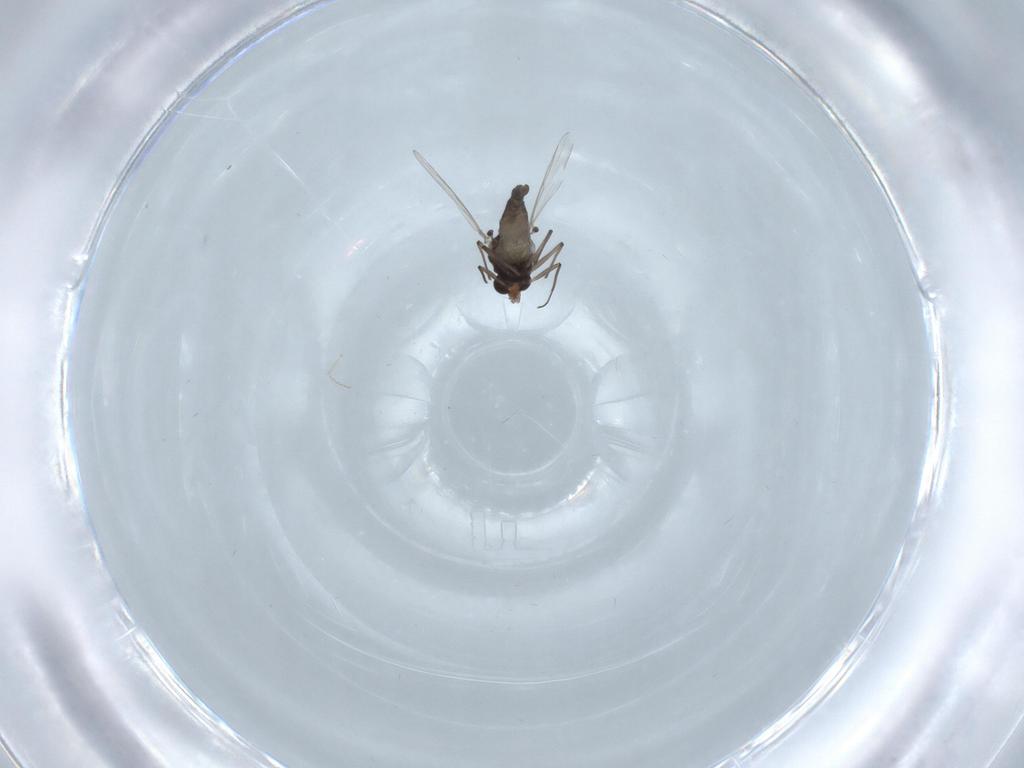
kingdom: Animalia
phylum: Arthropoda
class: Insecta
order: Diptera
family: Chironomidae
